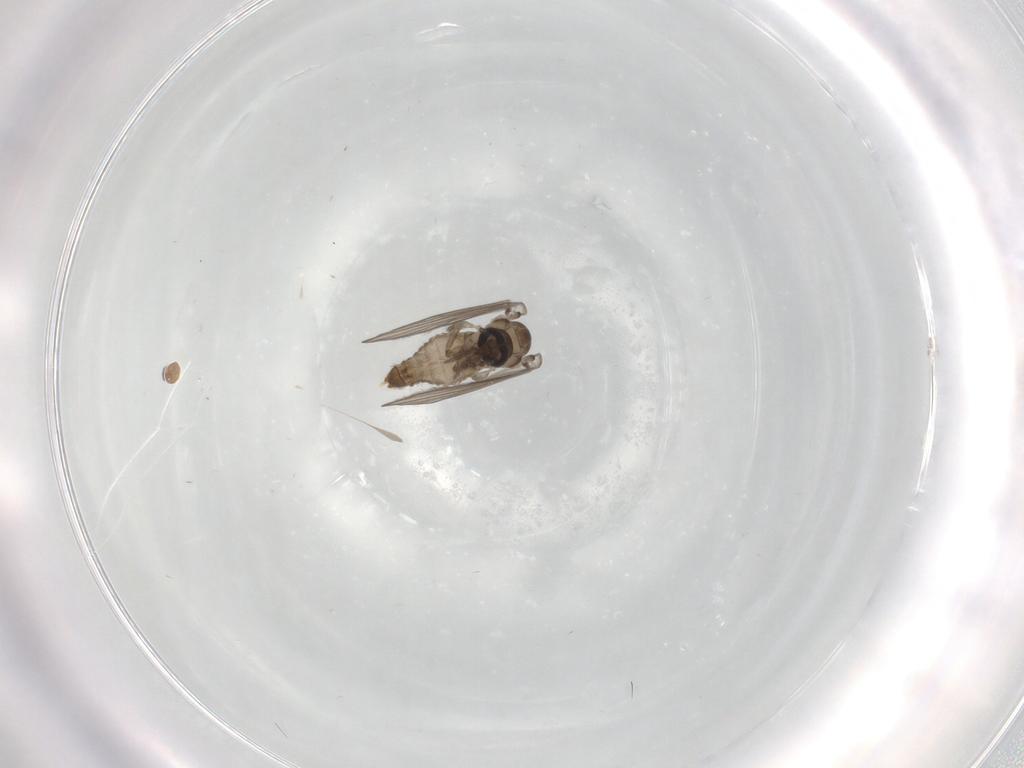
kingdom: Animalia
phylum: Arthropoda
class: Insecta
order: Diptera
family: Psychodidae
